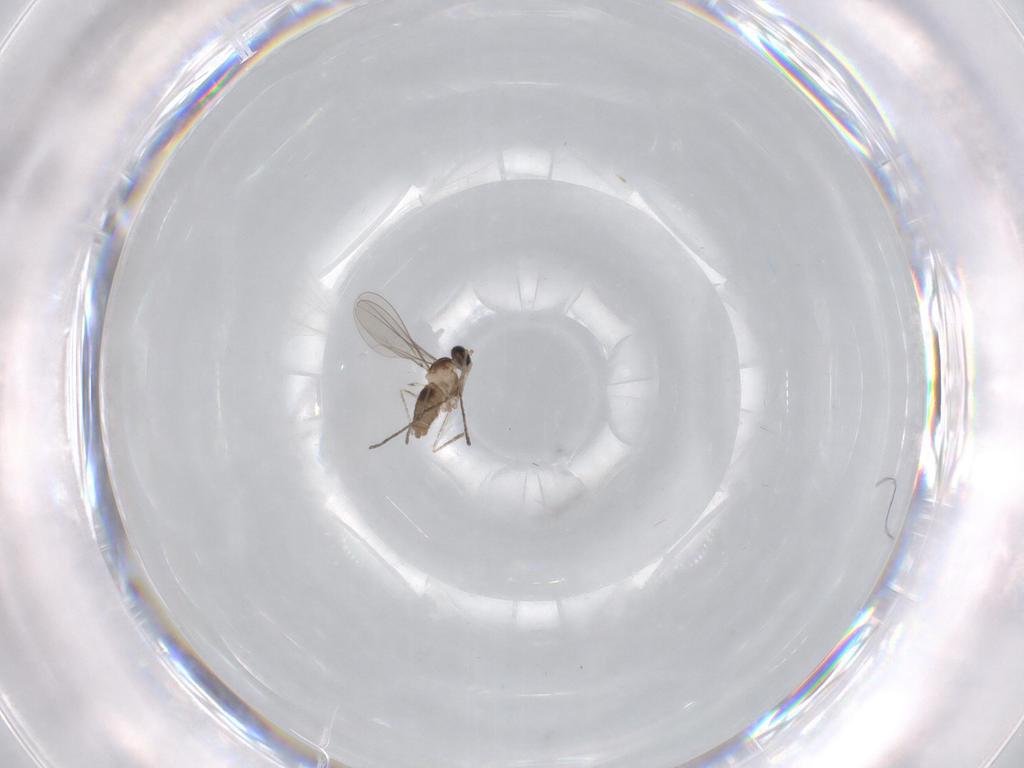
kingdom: Animalia
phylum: Arthropoda
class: Insecta
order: Diptera
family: Cecidomyiidae
